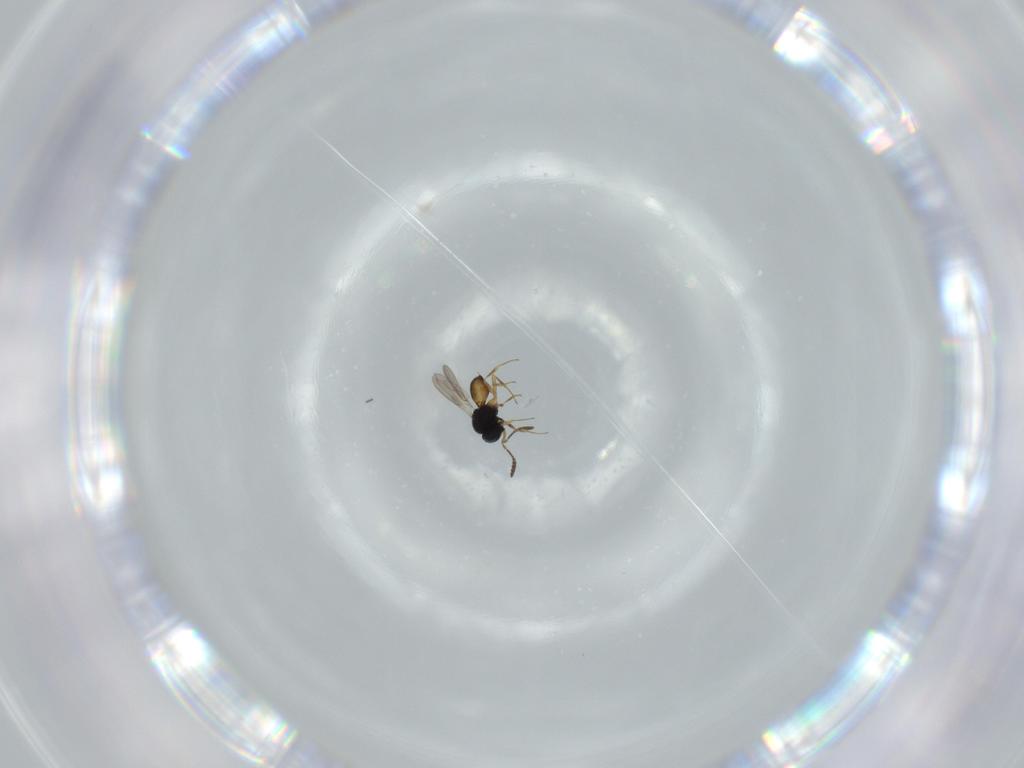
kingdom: Animalia
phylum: Arthropoda
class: Insecta
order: Hymenoptera
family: Scelionidae
